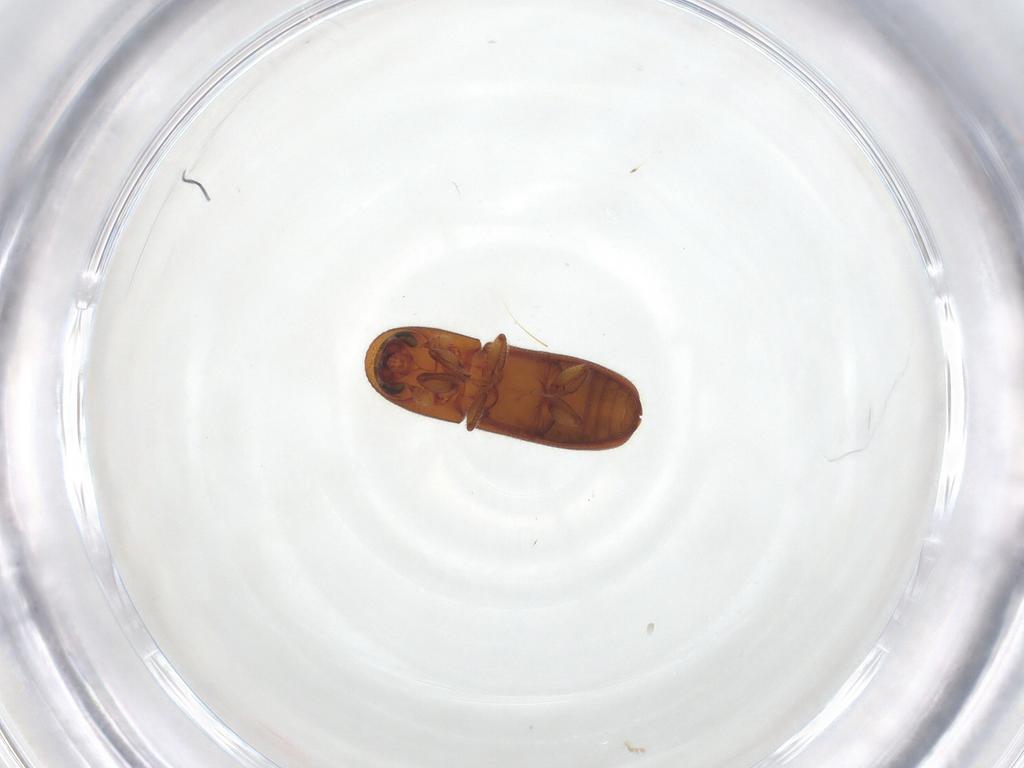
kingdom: Animalia
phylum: Arthropoda
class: Insecta
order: Coleoptera
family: Curculionidae
